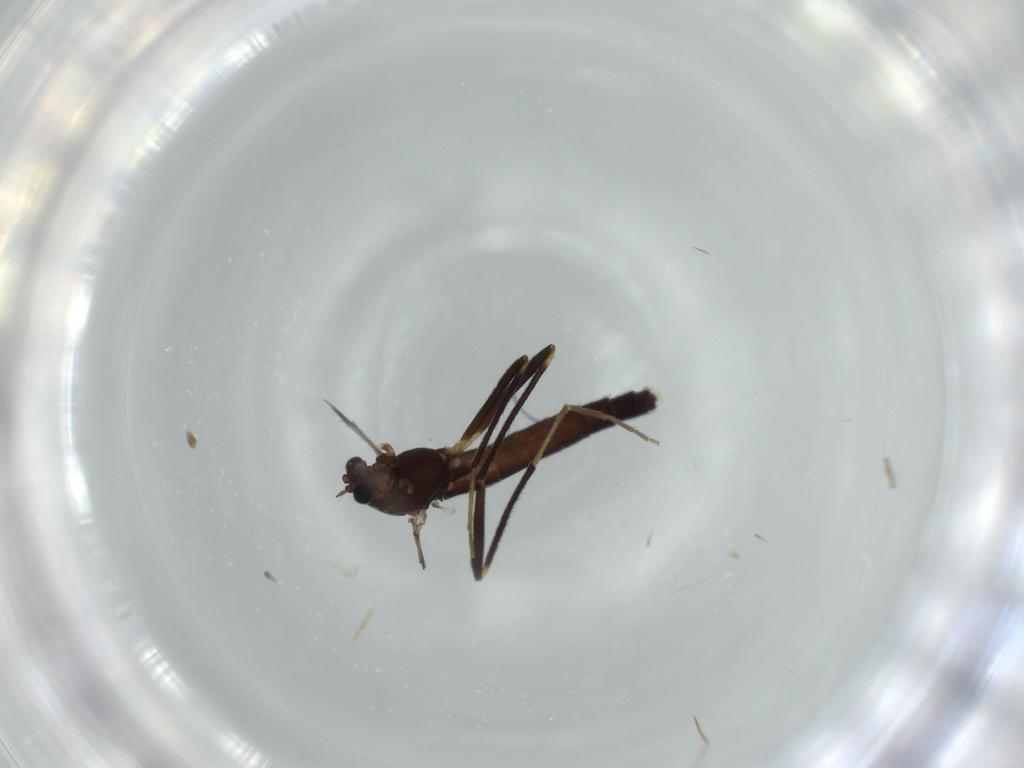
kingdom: Animalia
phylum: Arthropoda
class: Insecta
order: Diptera
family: Chironomidae
